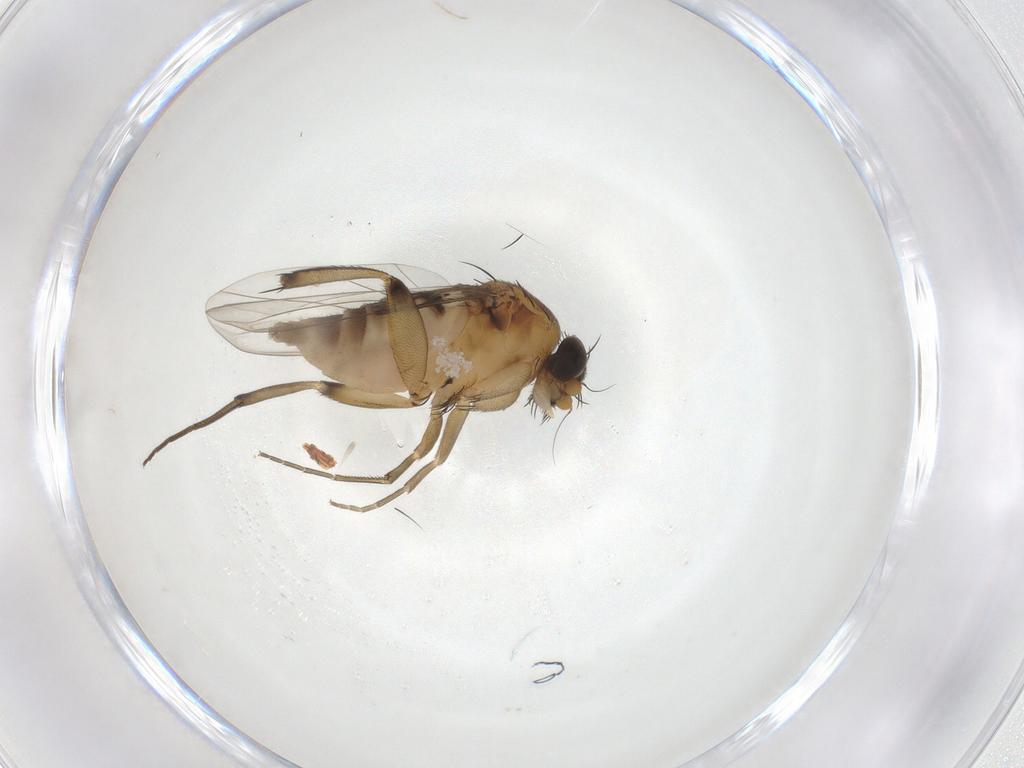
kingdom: Animalia
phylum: Arthropoda
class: Insecta
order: Diptera
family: Phoridae
